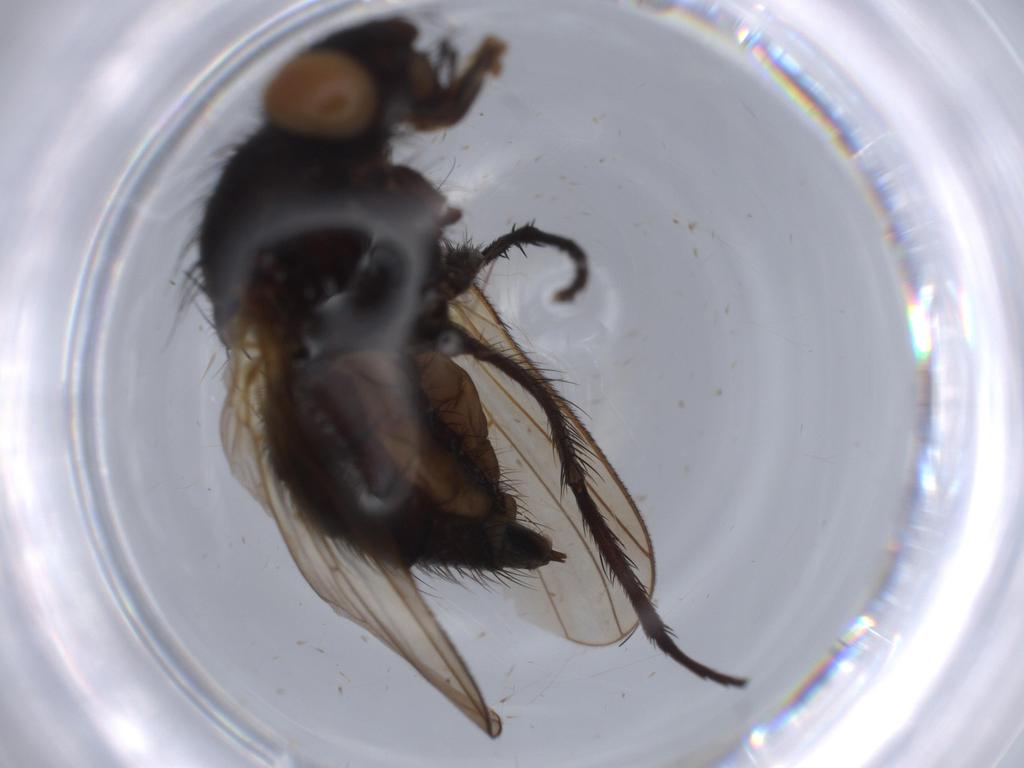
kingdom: Animalia
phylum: Arthropoda
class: Insecta
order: Diptera
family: Anthomyiidae
